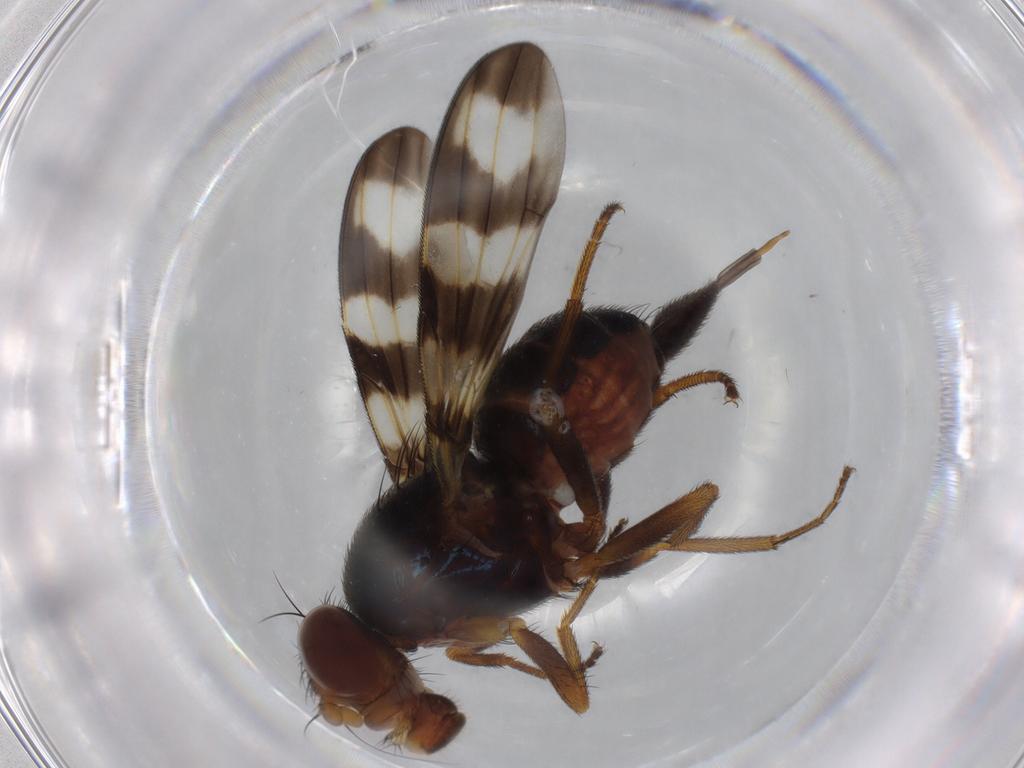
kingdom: Animalia
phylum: Arthropoda
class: Insecta
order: Diptera
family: Ulidiidae
